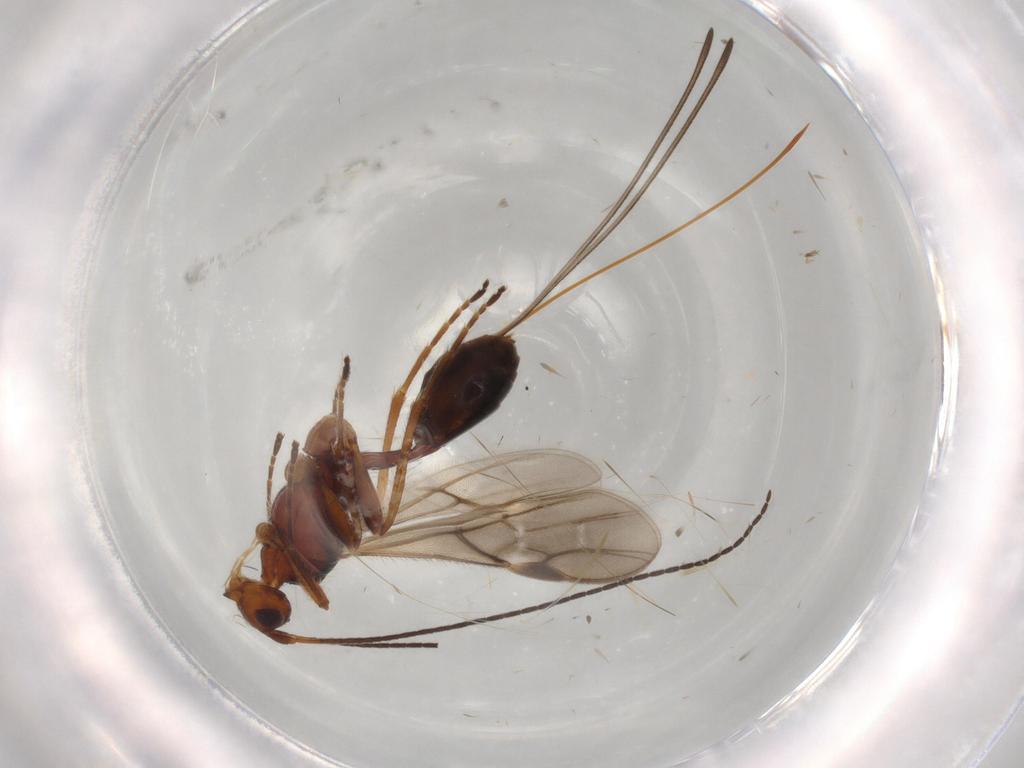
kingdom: Animalia
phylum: Arthropoda
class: Insecta
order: Hymenoptera
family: Braconidae
